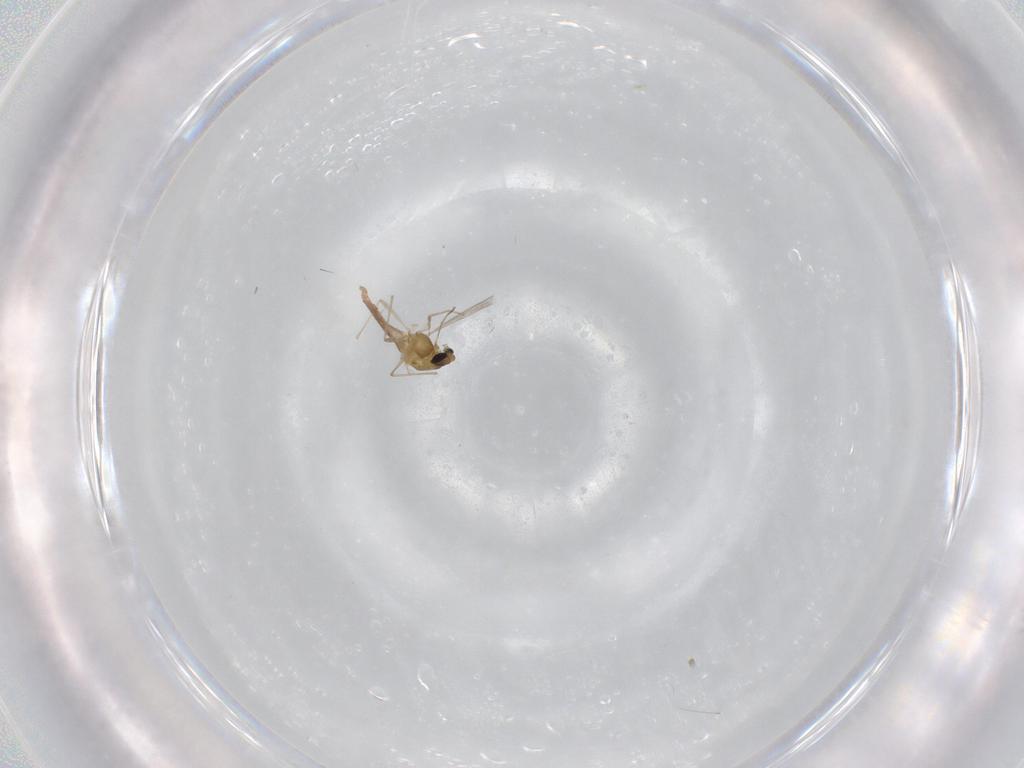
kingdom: Animalia
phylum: Arthropoda
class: Insecta
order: Diptera
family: Chironomidae
